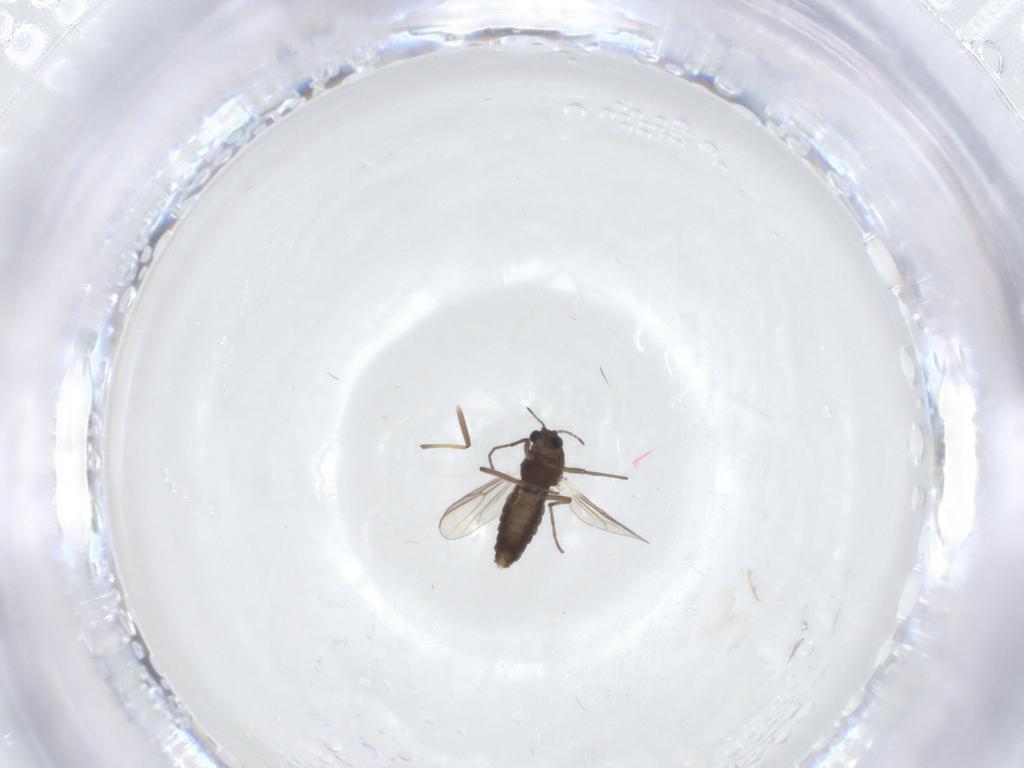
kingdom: Animalia
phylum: Arthropoda
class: Insecta
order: Diptera
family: Chironomidae
